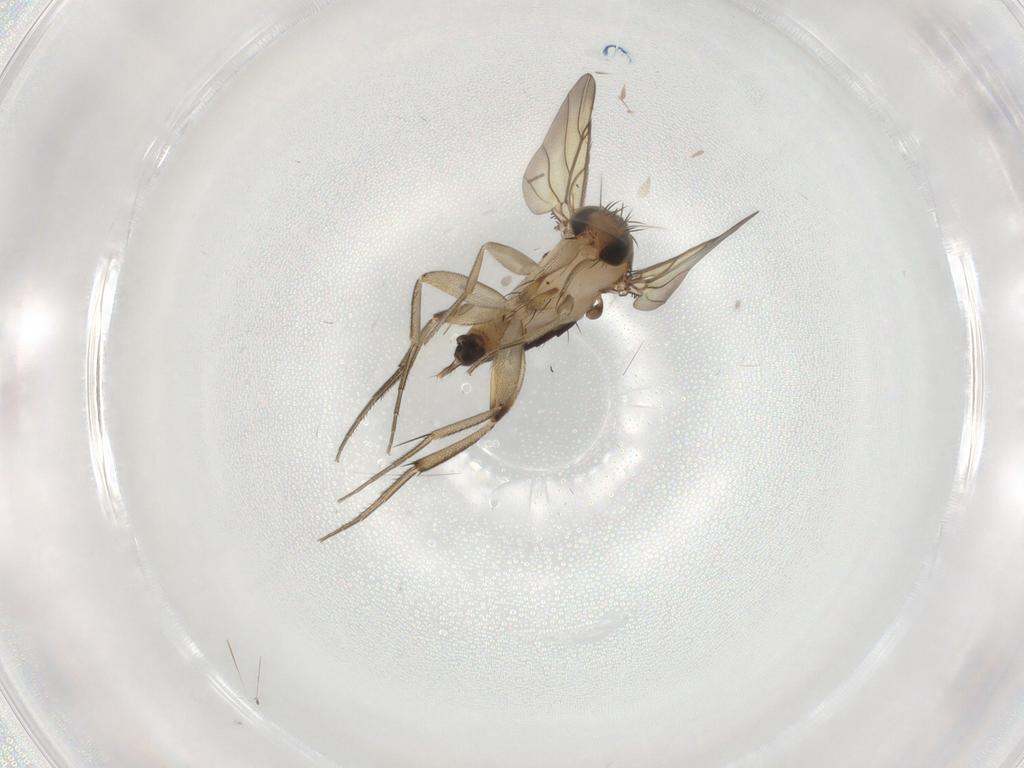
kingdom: Animalia
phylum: Arthropoda
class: Insecta
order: Diptera
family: Phoridae
